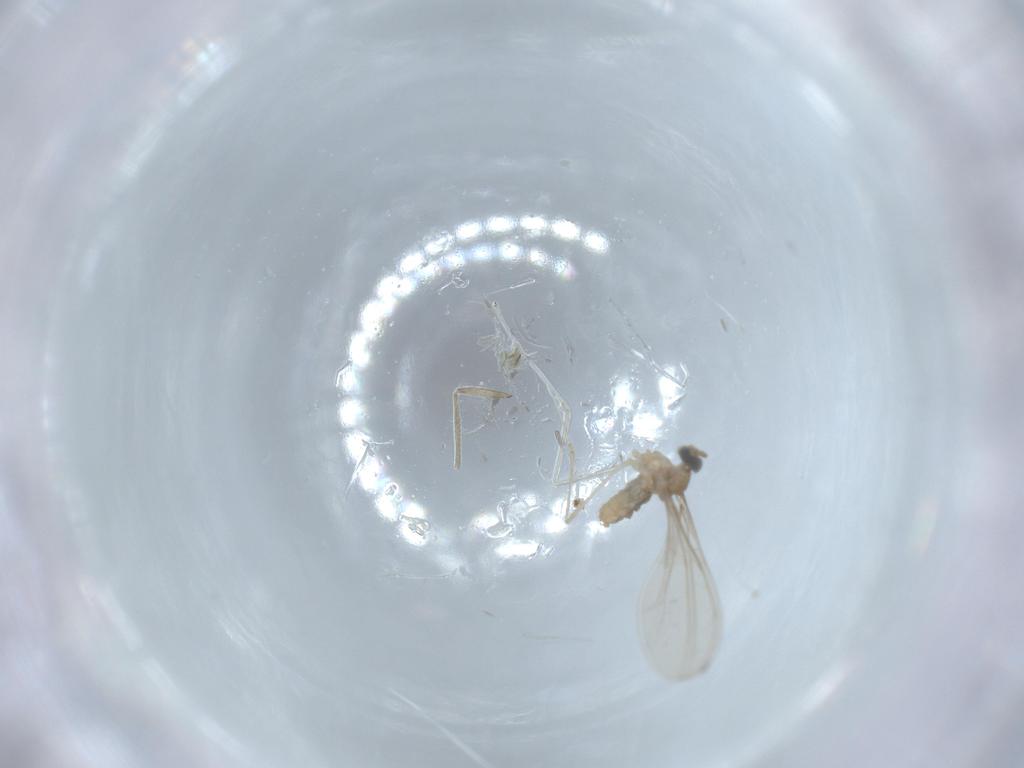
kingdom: Animalia
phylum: Arthropoda
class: Insecta
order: Diptera
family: Cecidomyiidae
